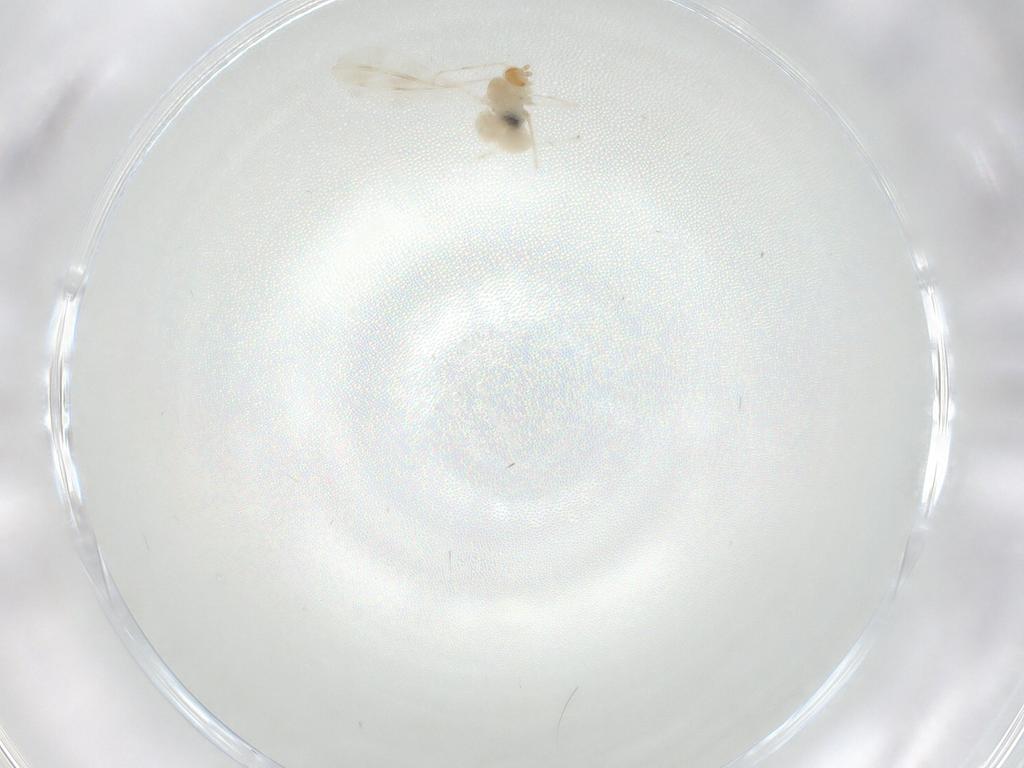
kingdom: Animalia
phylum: Arthropoda
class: Insecta
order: Diptera
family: Cecidomyiidae
